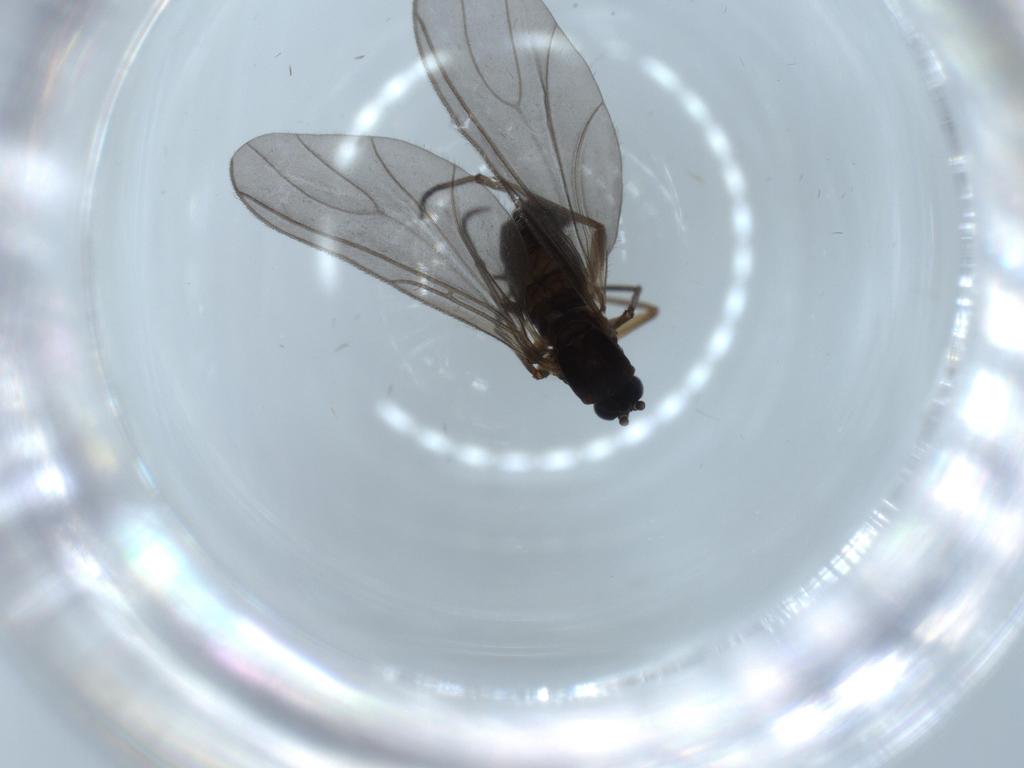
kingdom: Animalia
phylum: Arthropoda
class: Insecta
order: Diptera
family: Sciaridae
